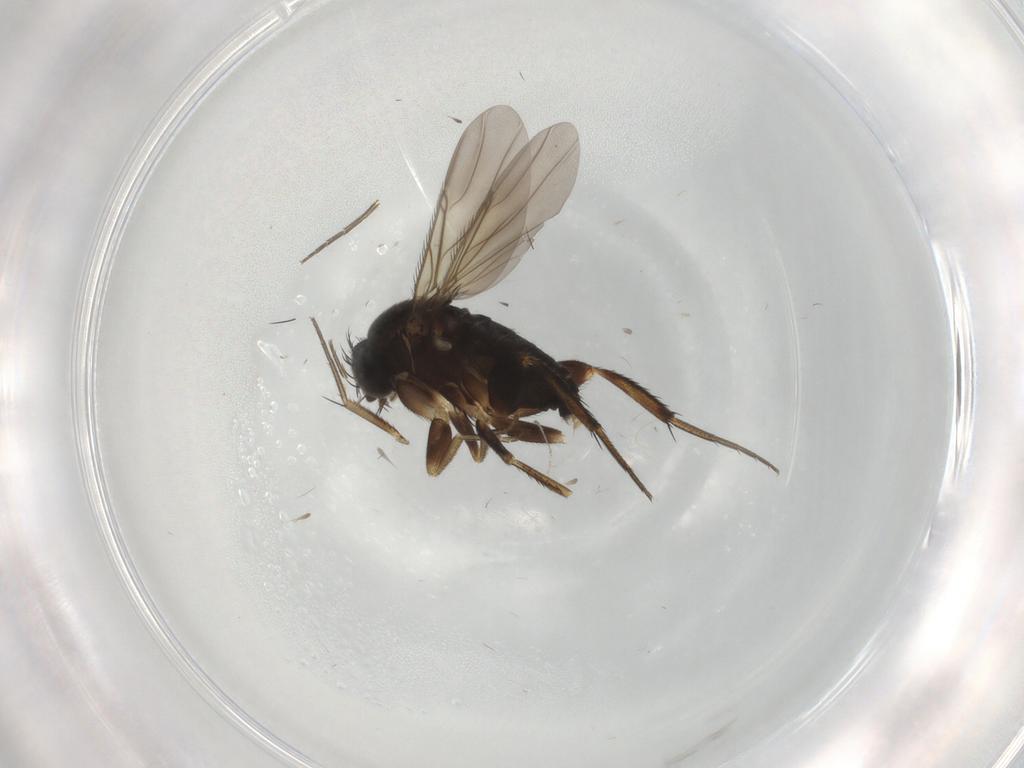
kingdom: Animalia
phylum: Arthropoda
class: Insecta
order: Diptera
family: Phoridae
